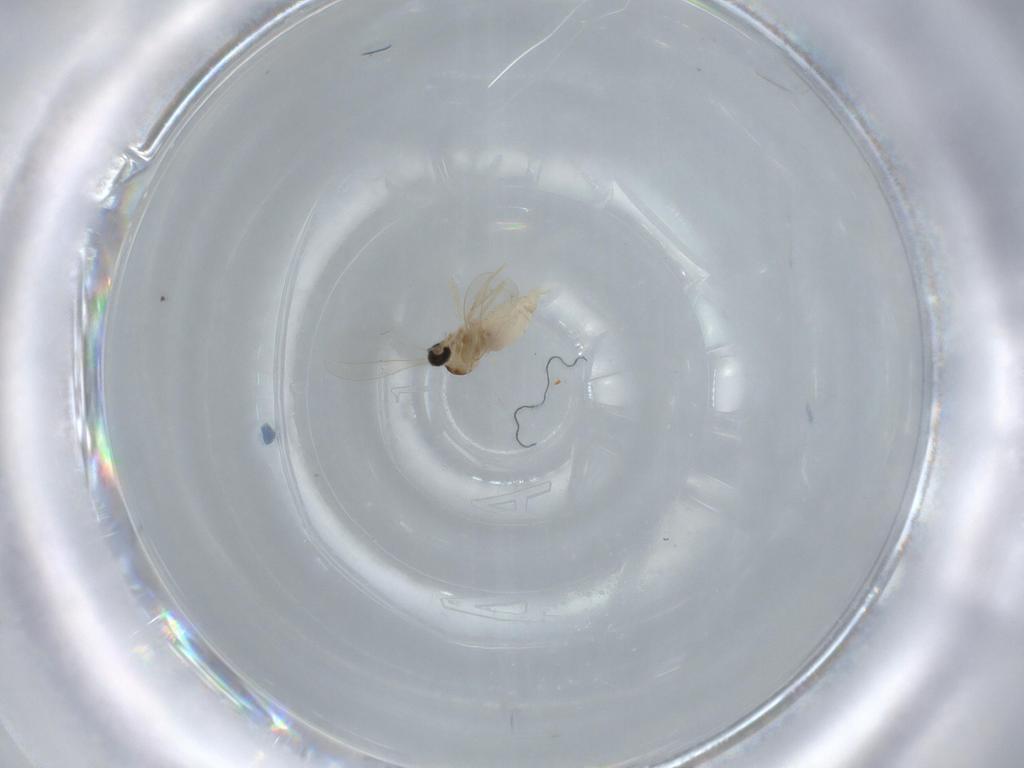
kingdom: Animalia
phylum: Arthropoda
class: Insecta
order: Diptera
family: Cecidomyiidae
